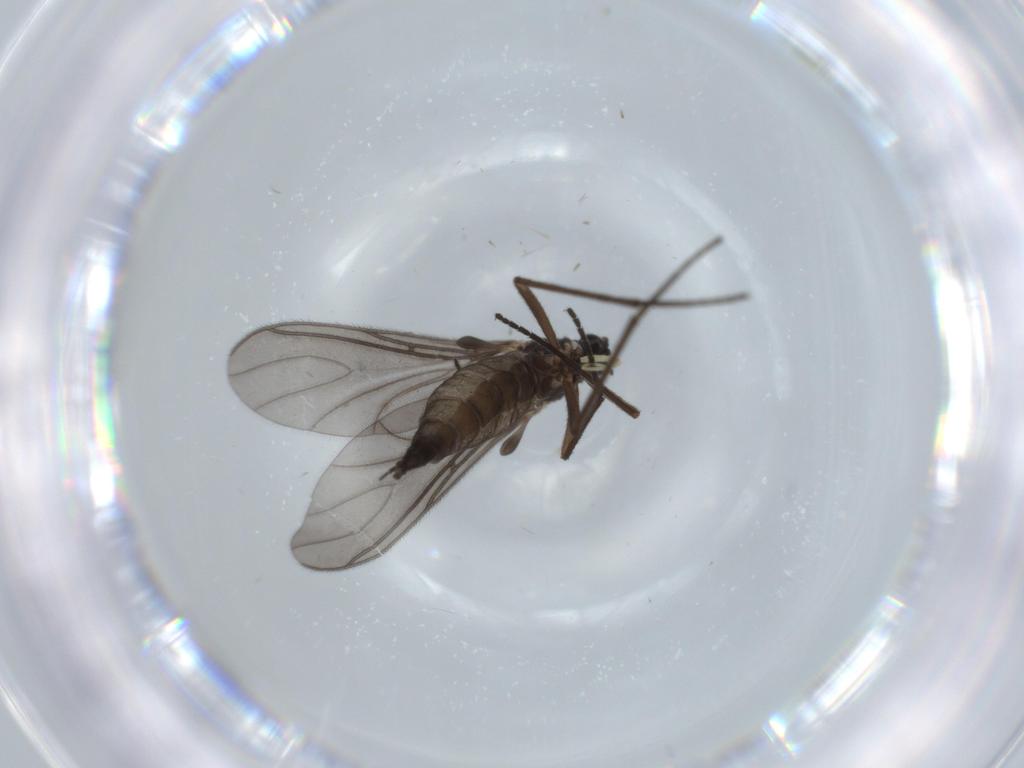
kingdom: Animalia
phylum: Arthropoda
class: Insecta
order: Diptera
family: Sciaridae
